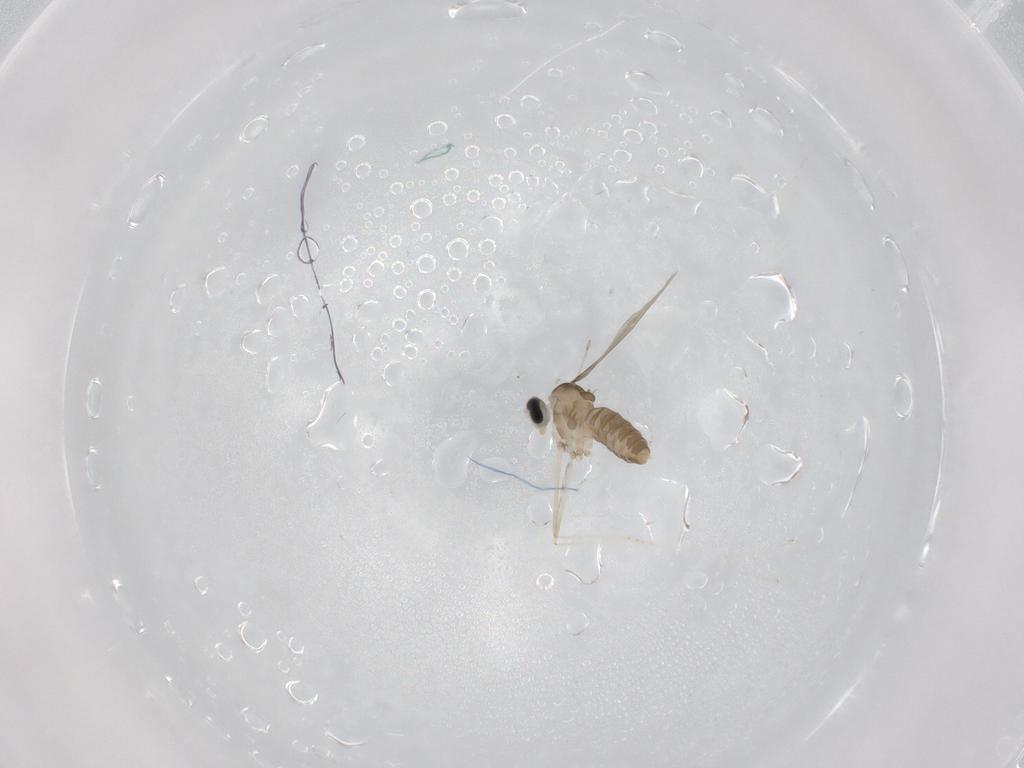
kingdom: Animalia
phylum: Arthropoda
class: Insecta
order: Diptera
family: Cecidomyiidae
